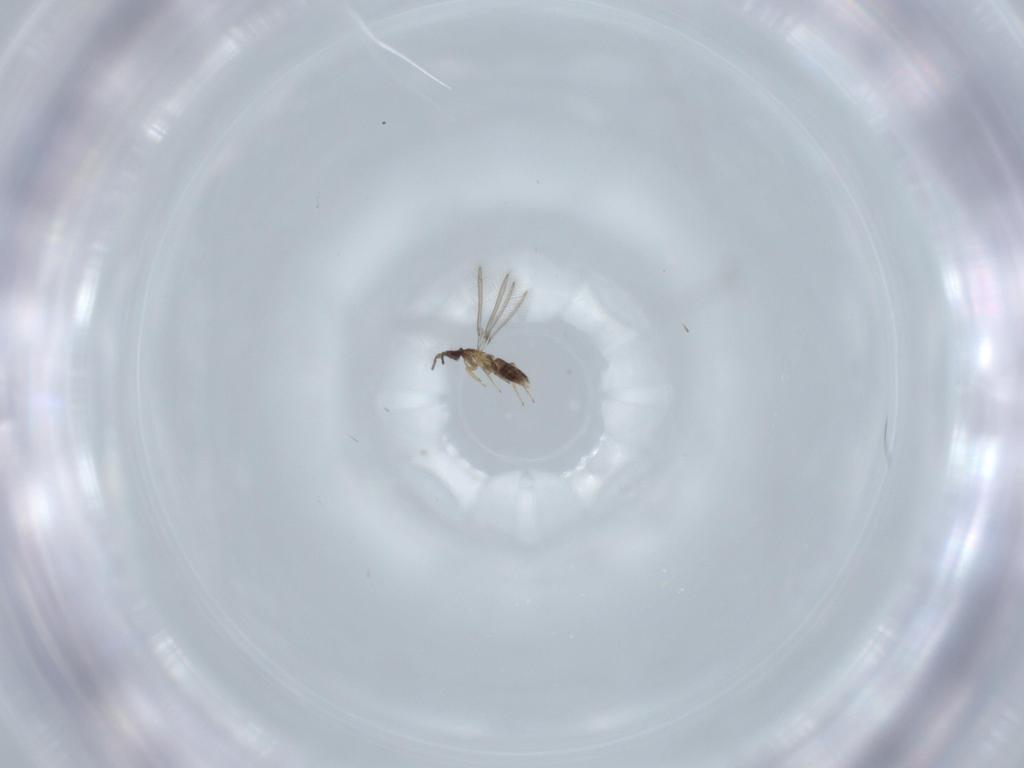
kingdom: Animalia
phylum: Arthropoda
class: Insecta
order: Hymenoptera
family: Mymaridae
